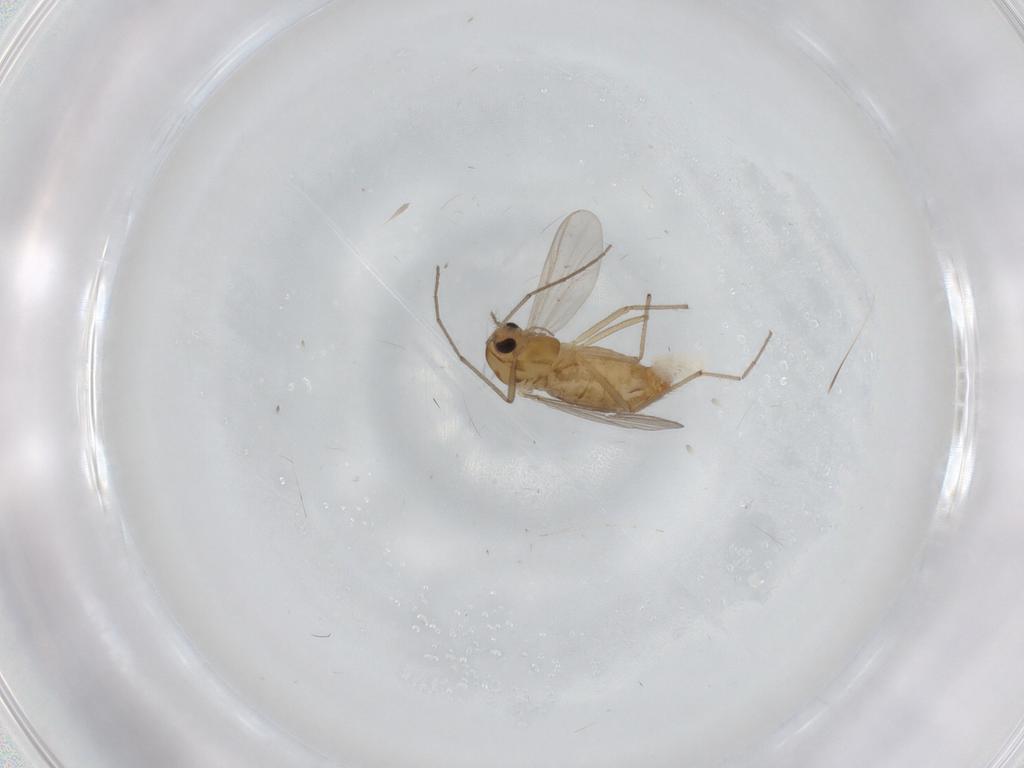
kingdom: Animalia
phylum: Arthropoda
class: Insecta
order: Diptera
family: Chironomidae
